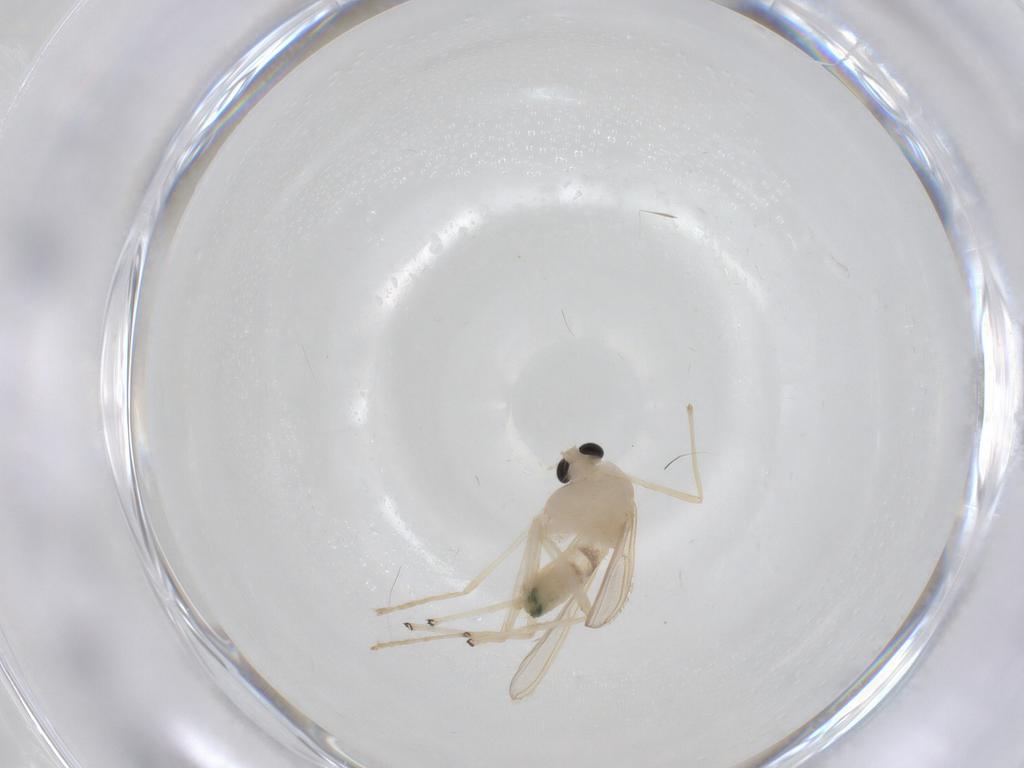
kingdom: Animalia
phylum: Arthropoda
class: Insecta
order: Diptera
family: Chironomidae
